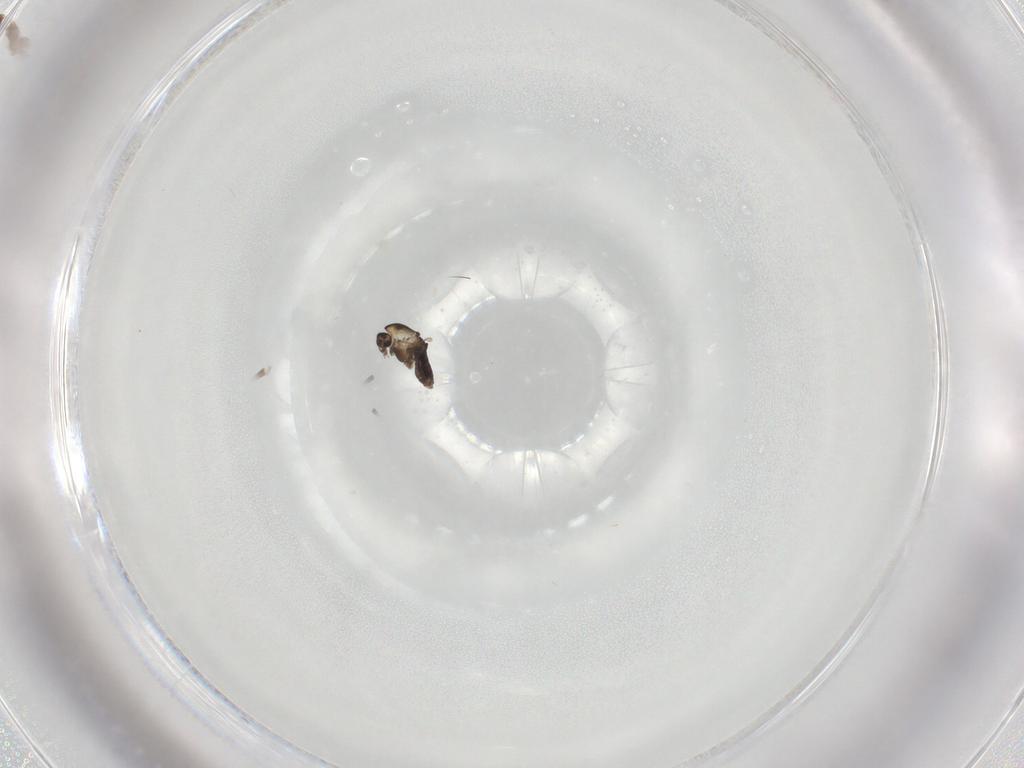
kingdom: Animalia
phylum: Arthropoda
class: Insecta
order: Diptera
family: Chironomidae
